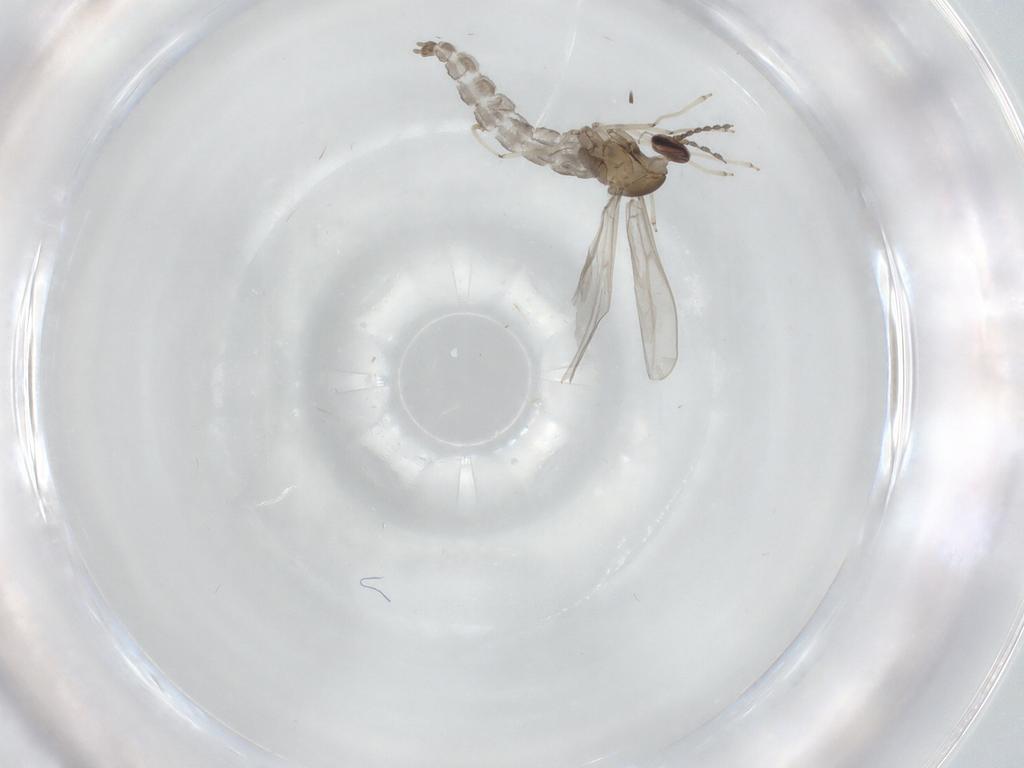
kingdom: Animalia
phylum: Arthropoda
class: Insecta
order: Diptera
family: Cecidomyiidae
